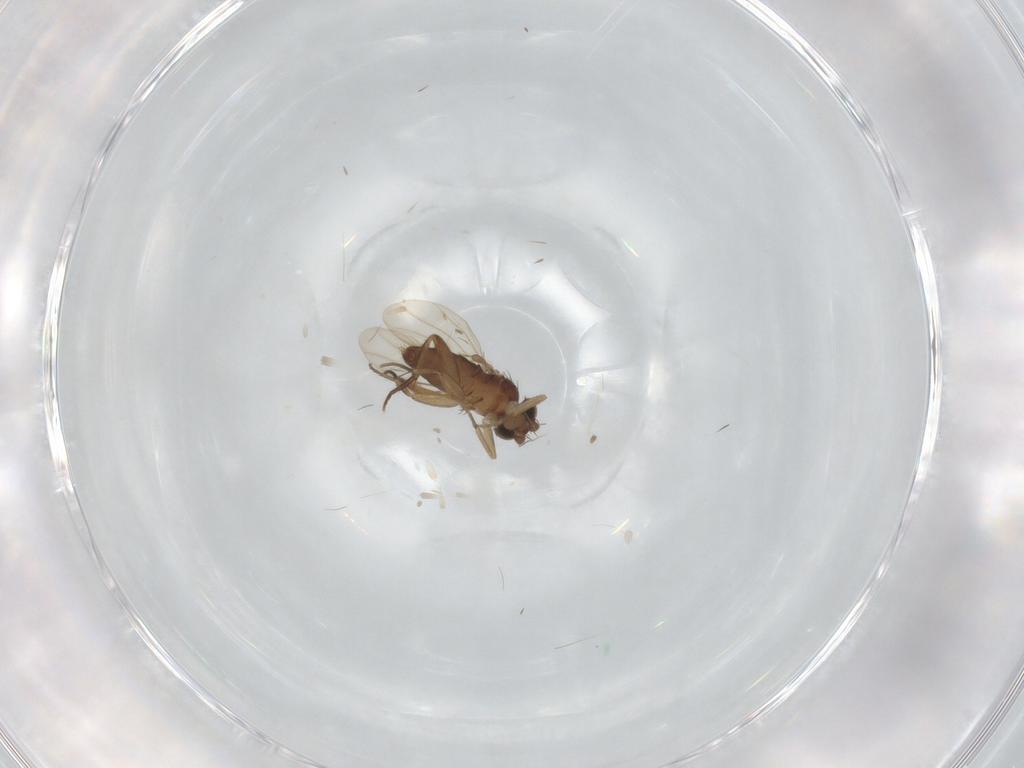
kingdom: Animalia
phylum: Arthropoda
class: Insecta
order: Diptera
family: Phoridae
